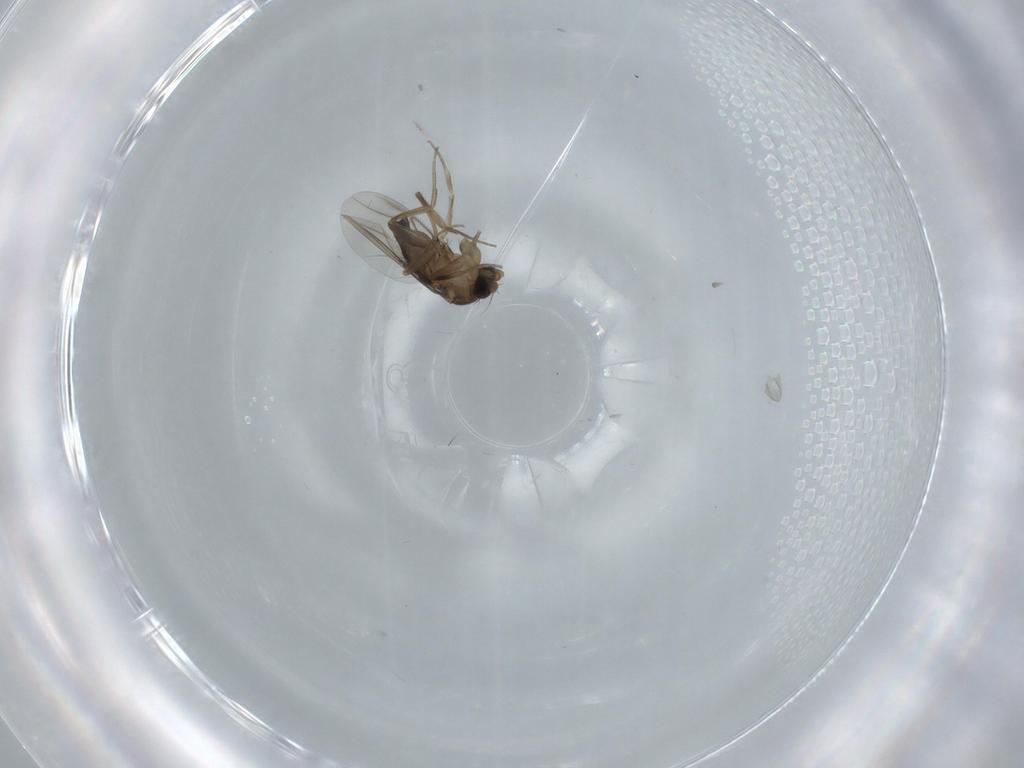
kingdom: Animalia
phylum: Arthropoda
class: Insecta
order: Diptera
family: Phoridae
